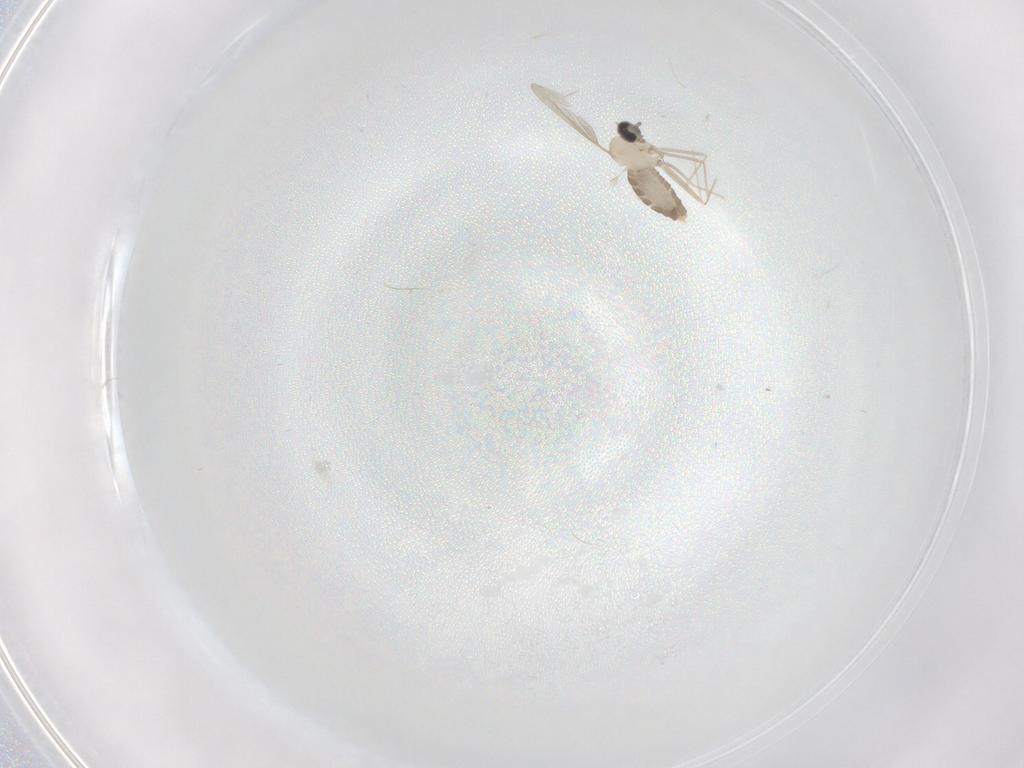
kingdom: Animalia
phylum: Arthropoda
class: Insecta
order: Diptera
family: Cecidomyiidae
